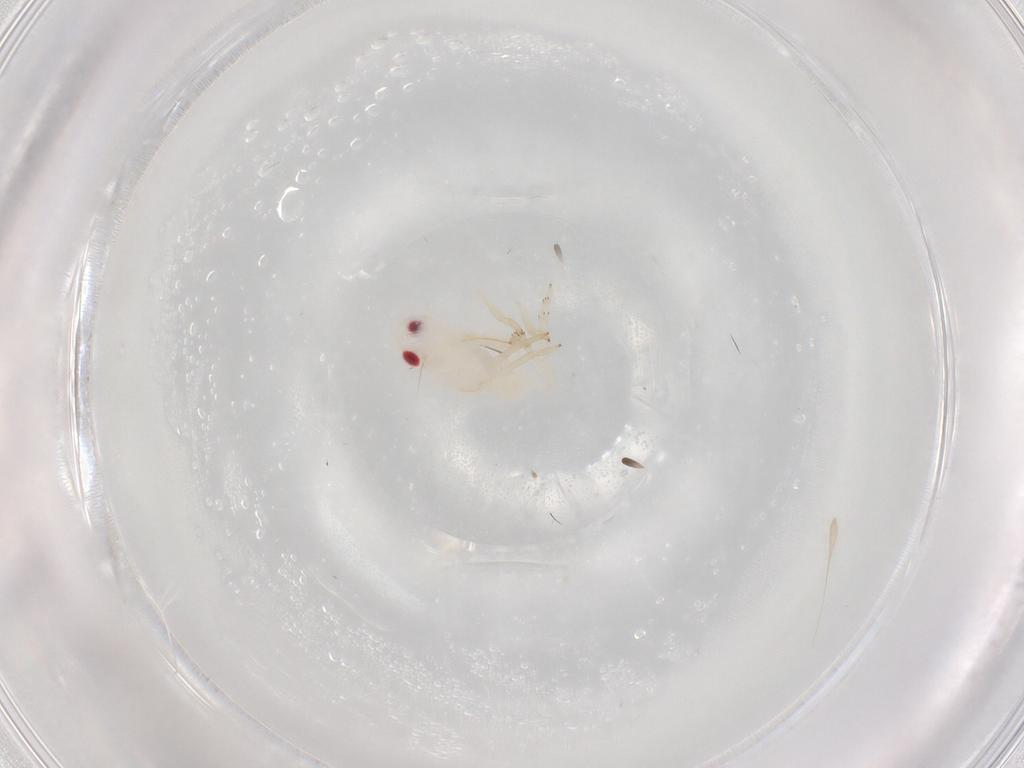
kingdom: Animalia
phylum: Arthropoda
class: Insecta
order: Hemiptera
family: Tropiduchidae
